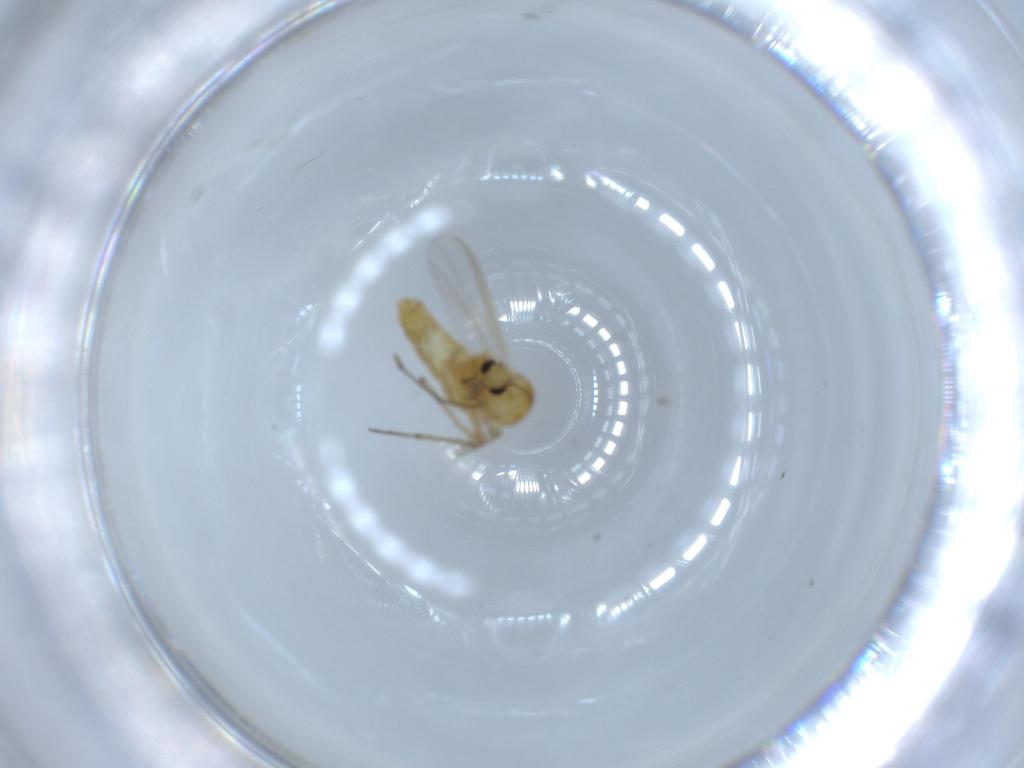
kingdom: Animalia
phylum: Arthropoda
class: Insecta
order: Diptera
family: Chironomidae
